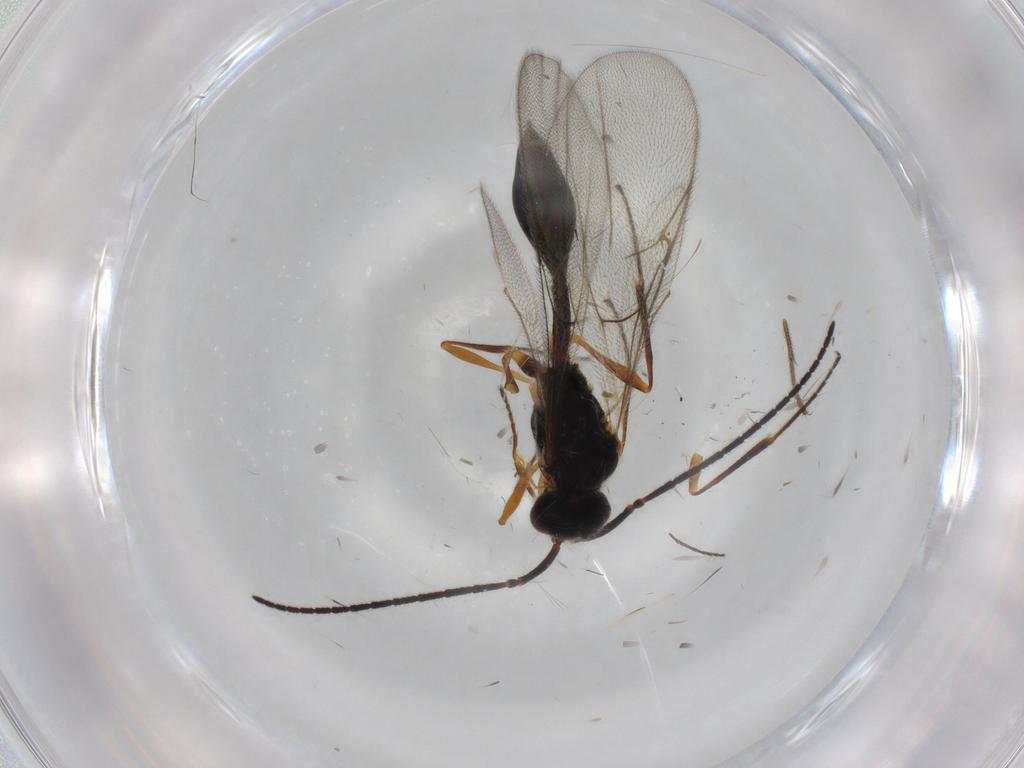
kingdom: Animalia
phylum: Arthropoda
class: Insecta
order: Hymenoptera
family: Diapriidae
